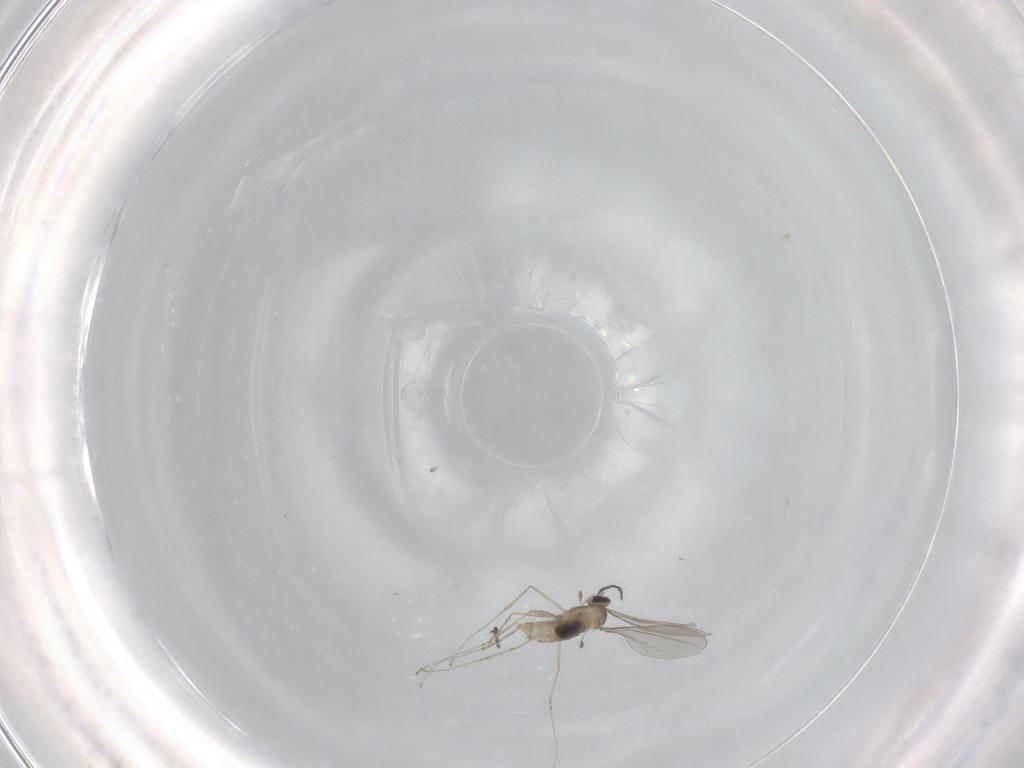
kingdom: Animalia
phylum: Arthropoda
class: Insecta
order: Diptera
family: Cecidomyiidae
